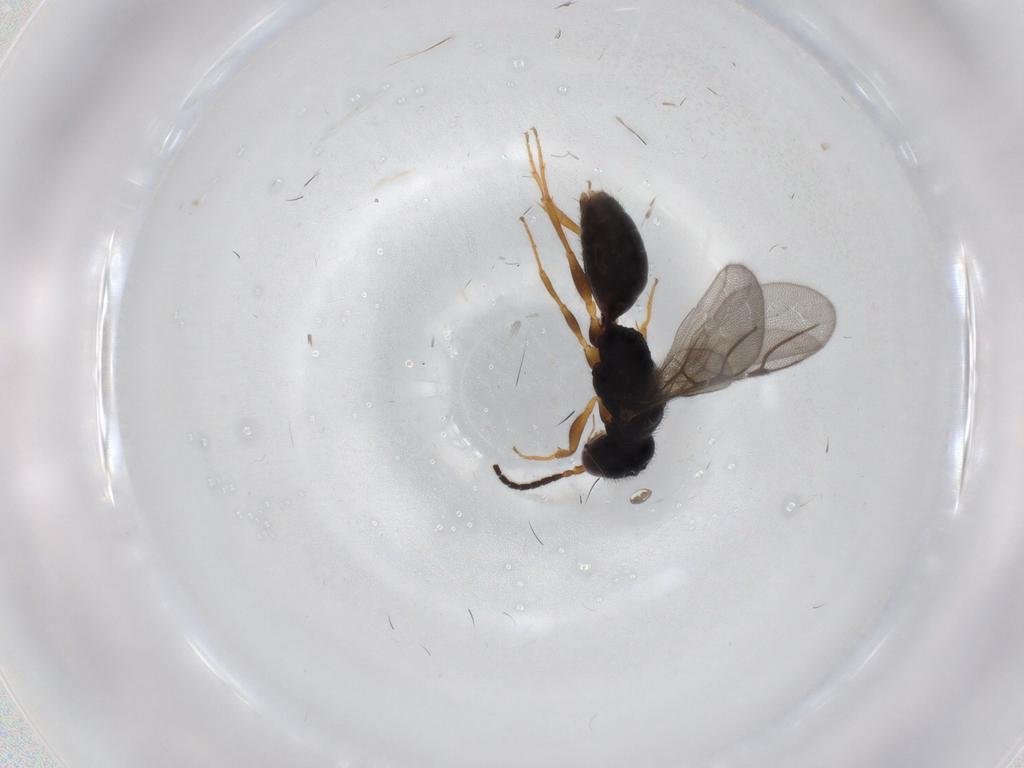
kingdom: Animalia
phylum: Arthropoda
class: Insecta
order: Hymenoptera
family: Bethylidae
